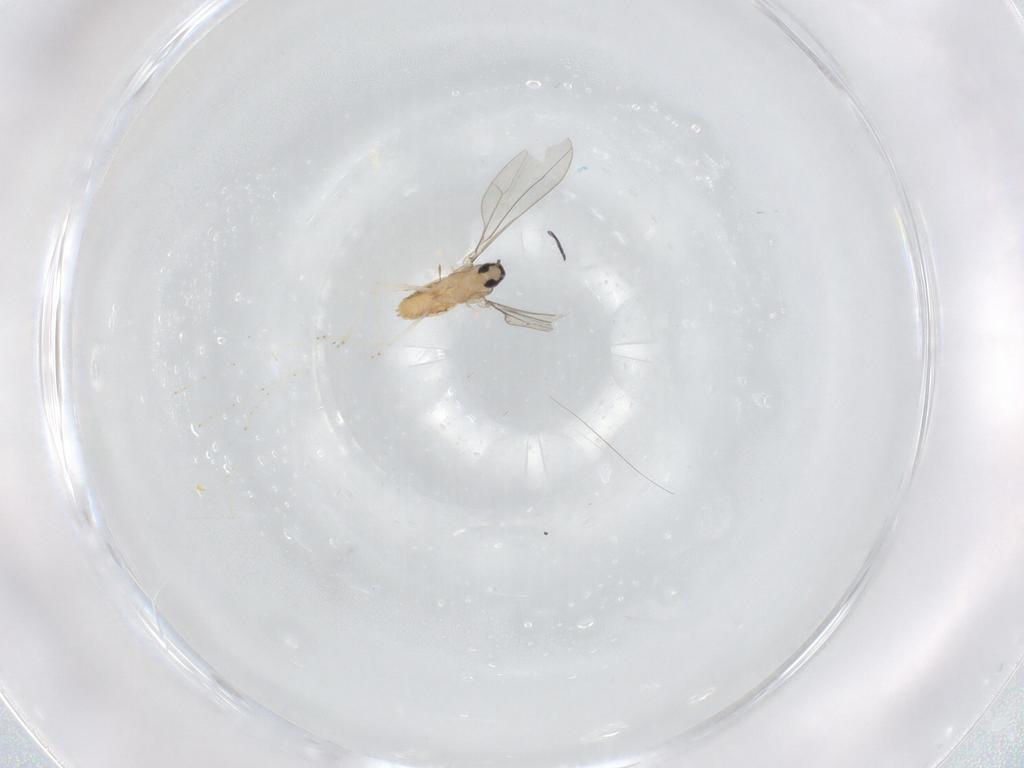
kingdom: Animalia
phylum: Arthropoda
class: Insecta
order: Diptera
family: Cecidomyiidae
